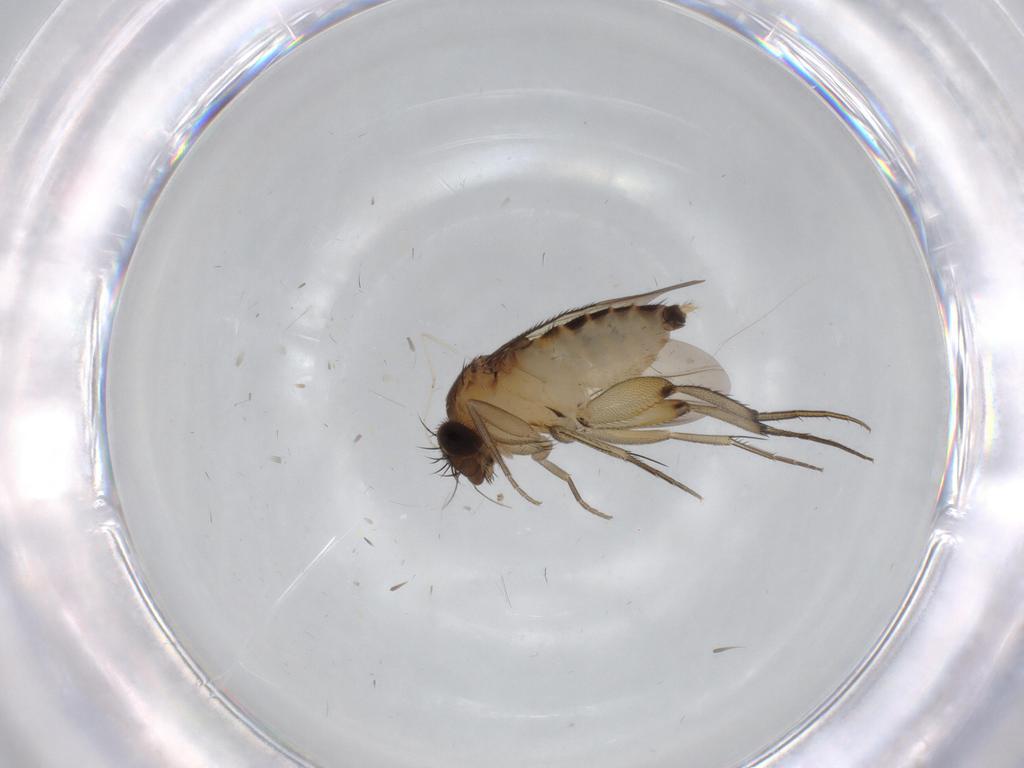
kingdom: Animalia
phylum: Arthropoda
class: Insecta
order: Diptera
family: Phoridae
